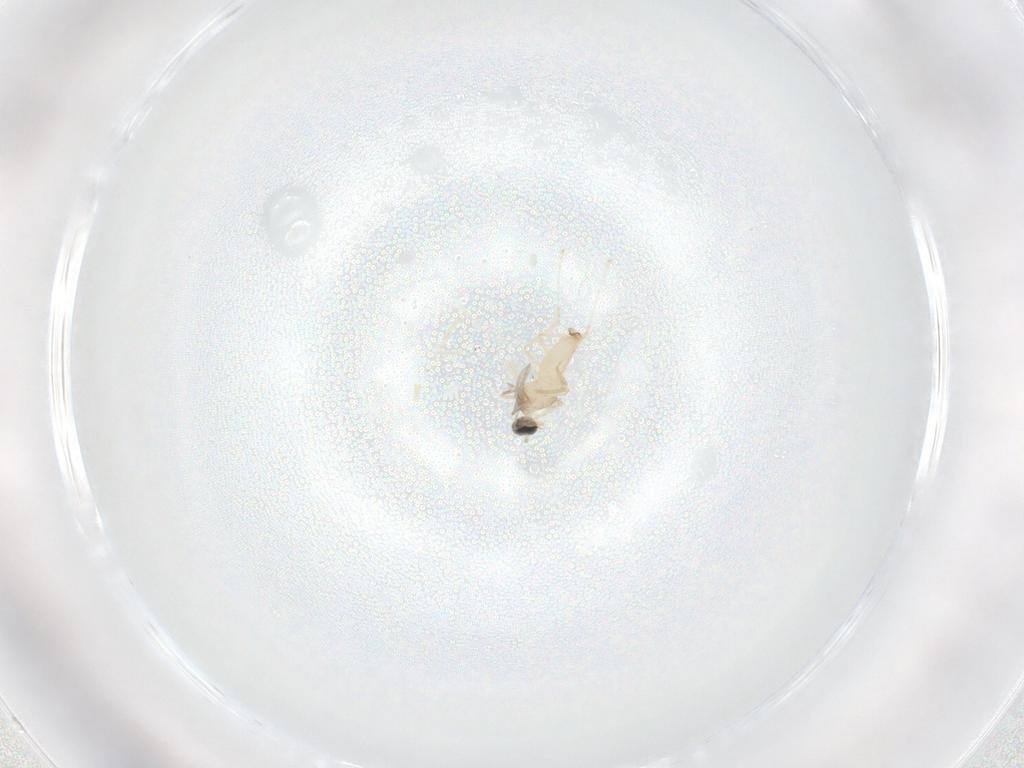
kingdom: Animalia
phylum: Arthropoda
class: Insecta
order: Diptera
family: Cecidomyiidae
